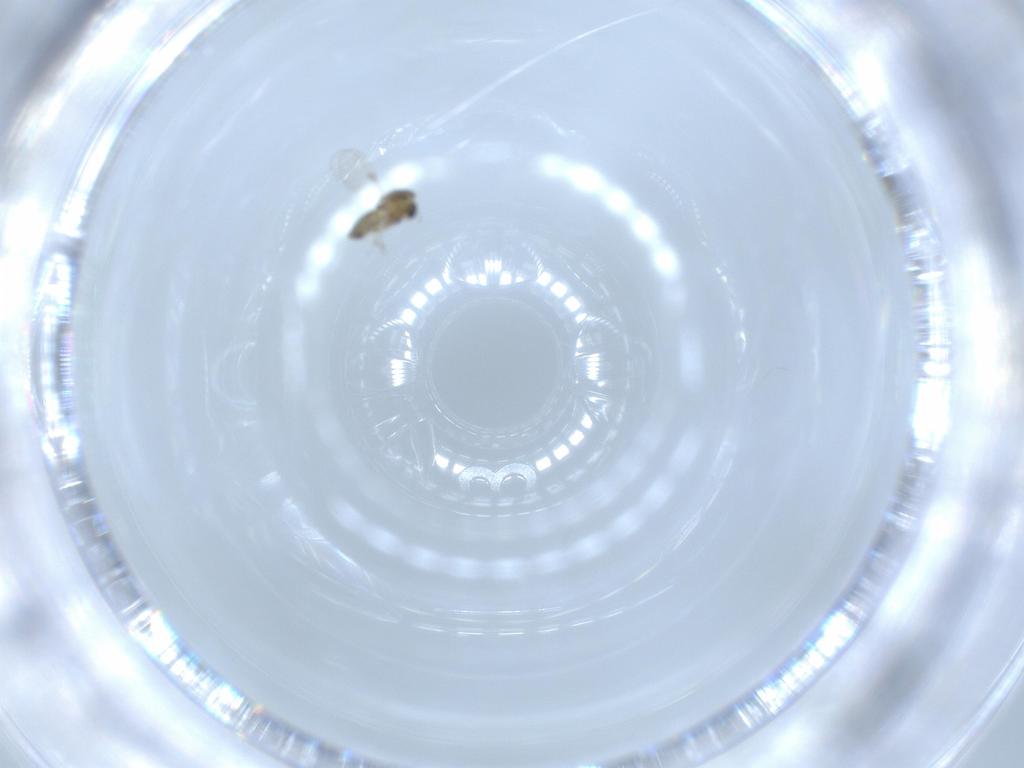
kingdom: Animalia
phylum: Arthropoda
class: Insecta
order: Diptera
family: Chironomidae
